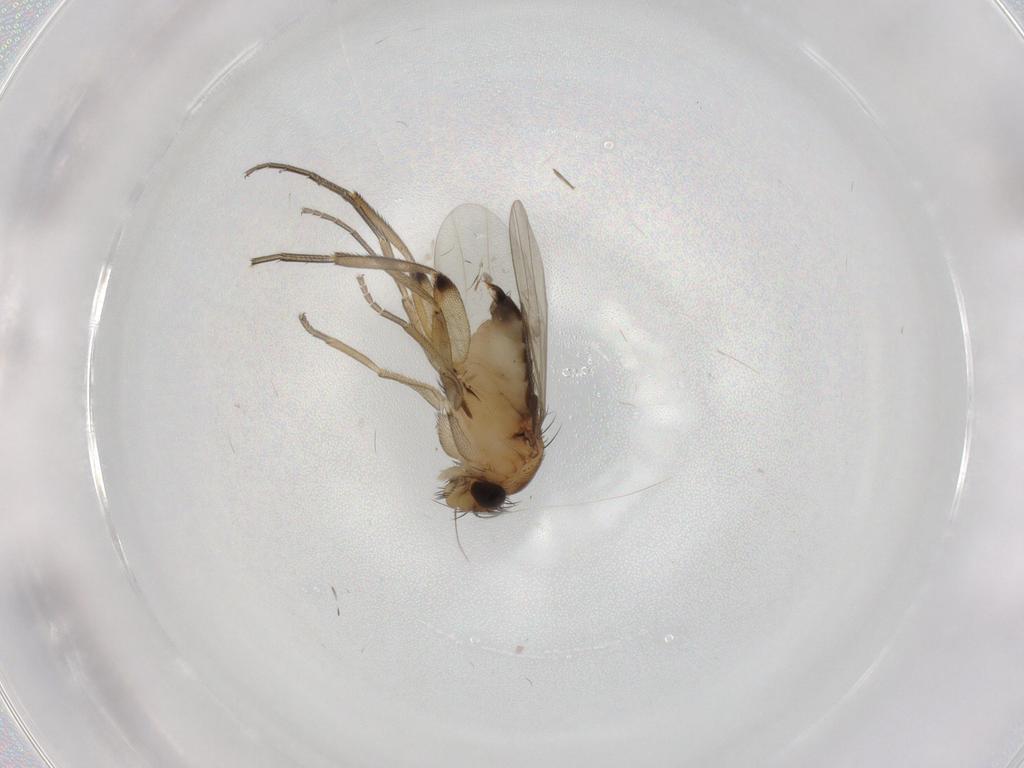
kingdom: Animalia
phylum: Arthropoda
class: Insecta
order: Diptera
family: Phoridae
